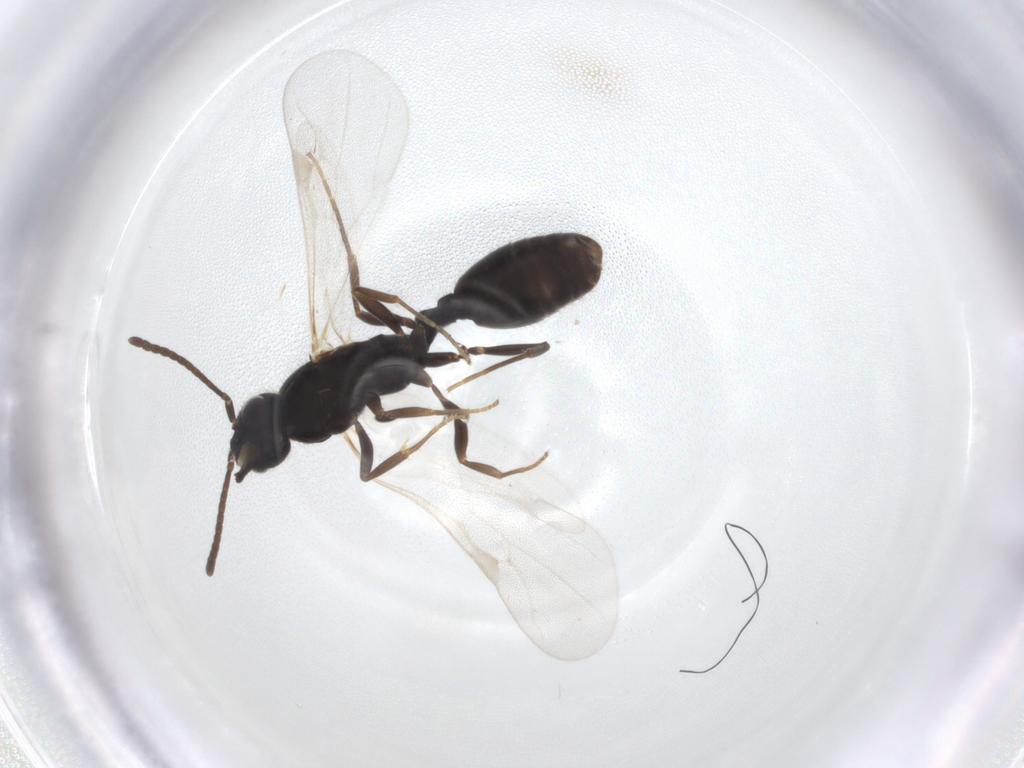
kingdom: Animalia
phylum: Arthropoda
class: Insecta
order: Hymenoptera
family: Formicidae
